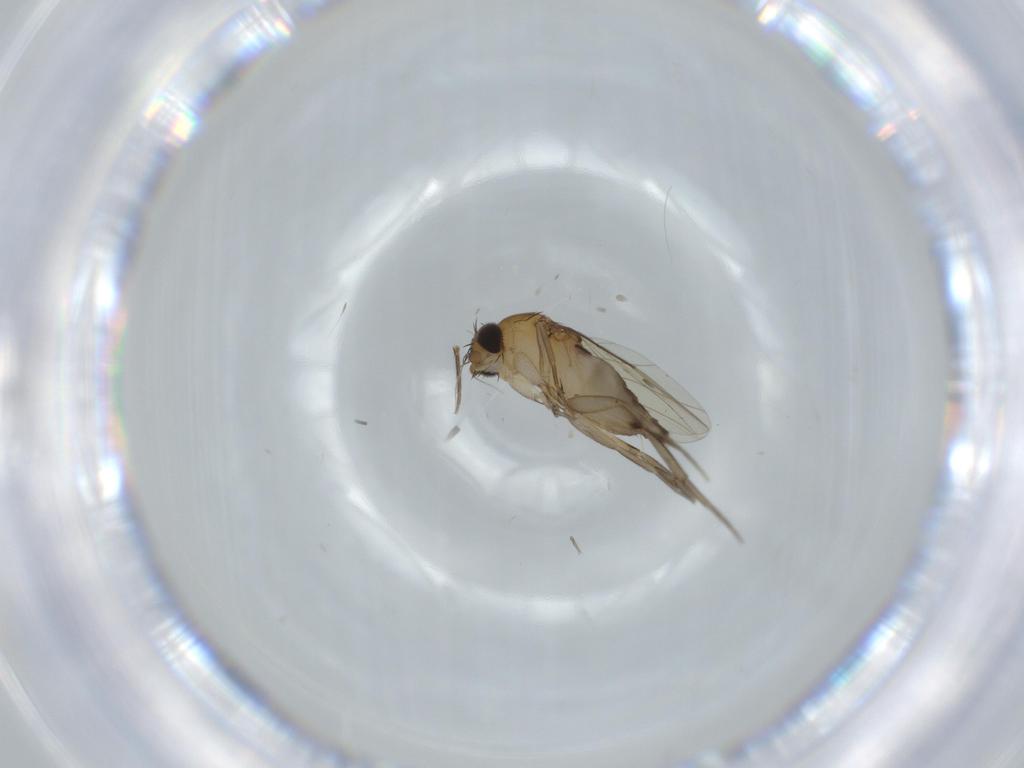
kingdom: Animalia
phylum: Arthropoda
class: Insecta
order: Diptera
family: Phoridae
